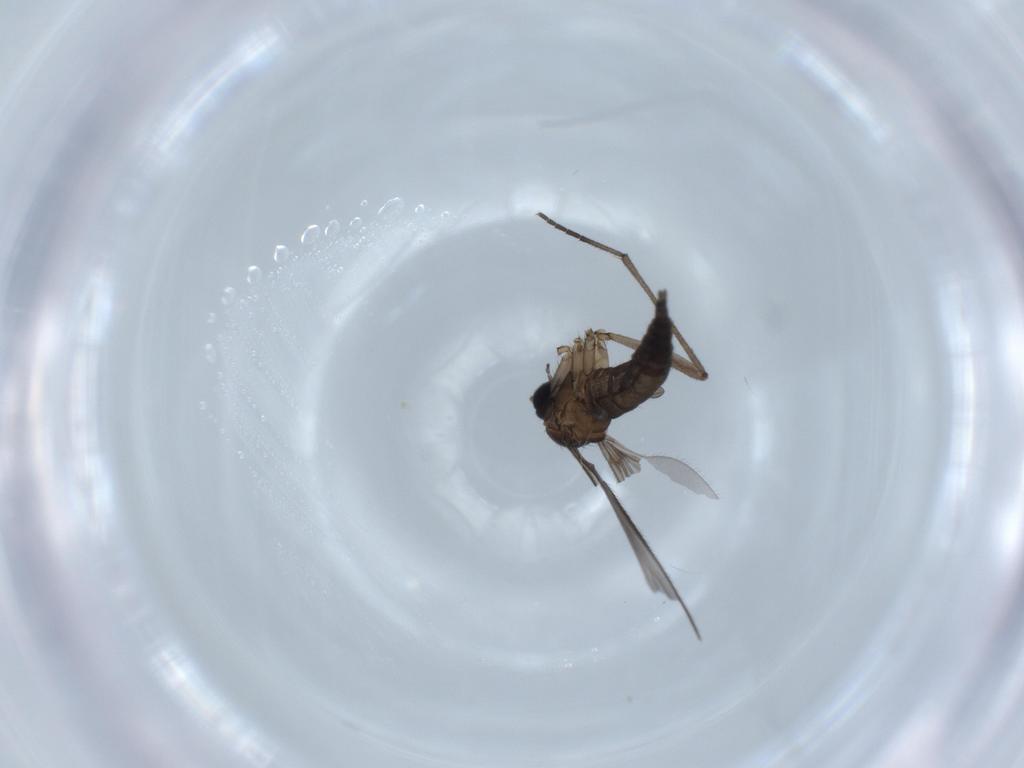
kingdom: Animalia
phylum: Arthropoda
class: Insecta
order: Diptera
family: Sciaridae
